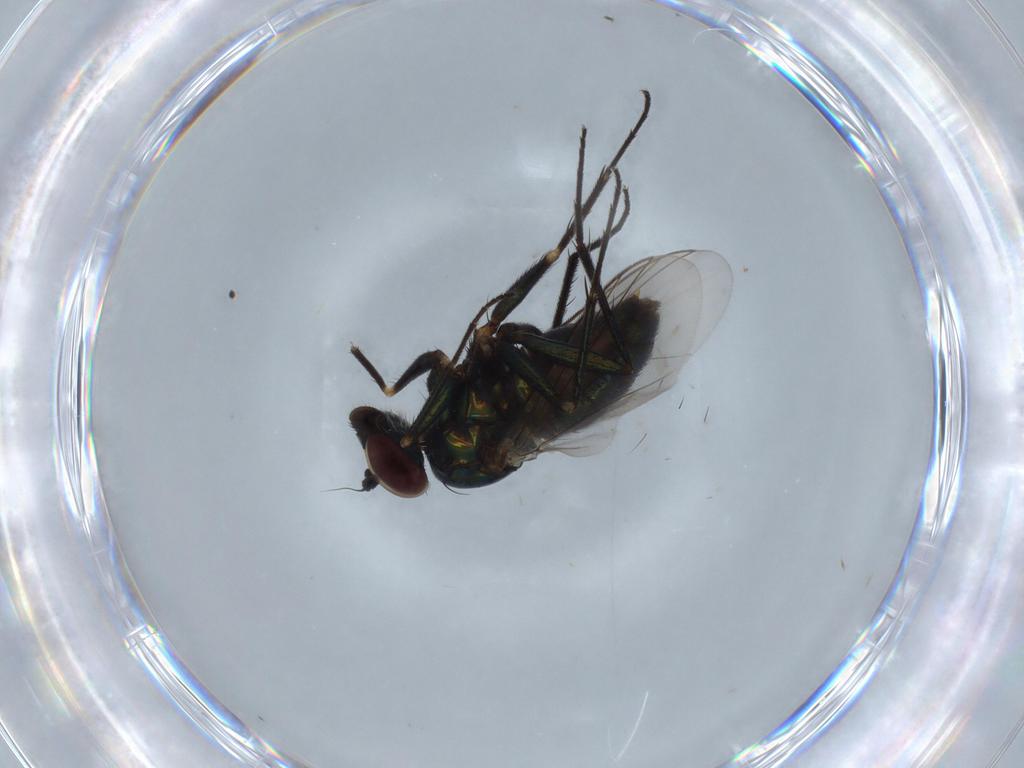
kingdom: Animalia
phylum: Arthropoda
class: Insecta
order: Diptera
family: Dolichopodidae
